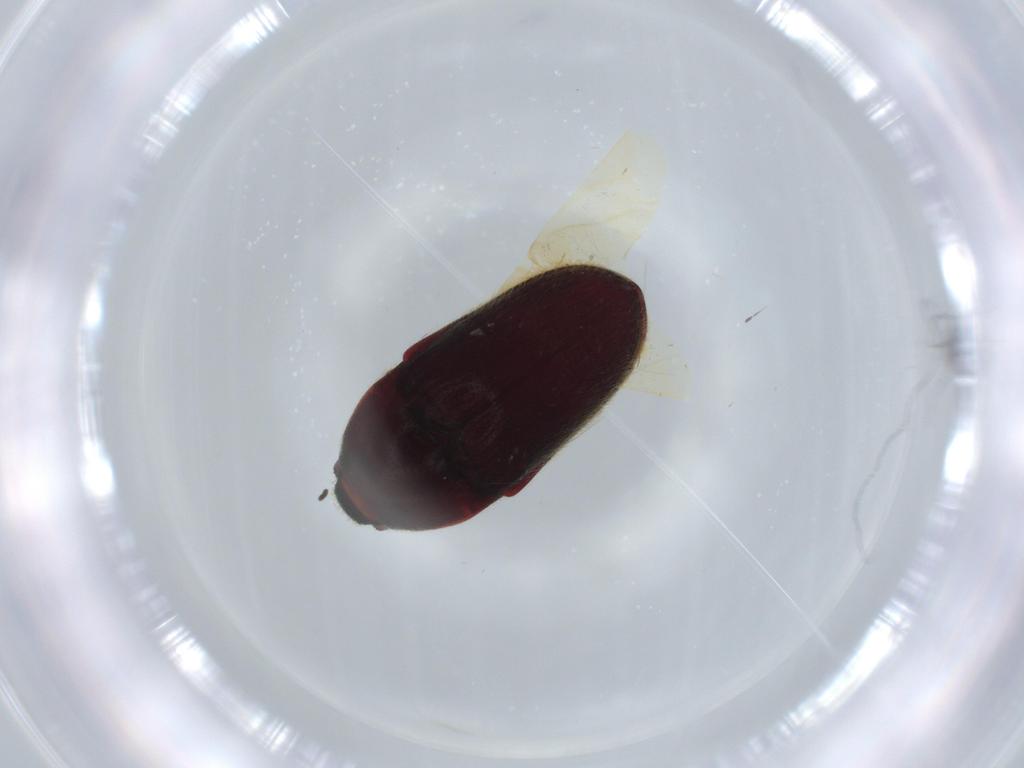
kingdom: Animalia
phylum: Arthropoda
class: Insecta
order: Coleoptera
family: Throscidae
